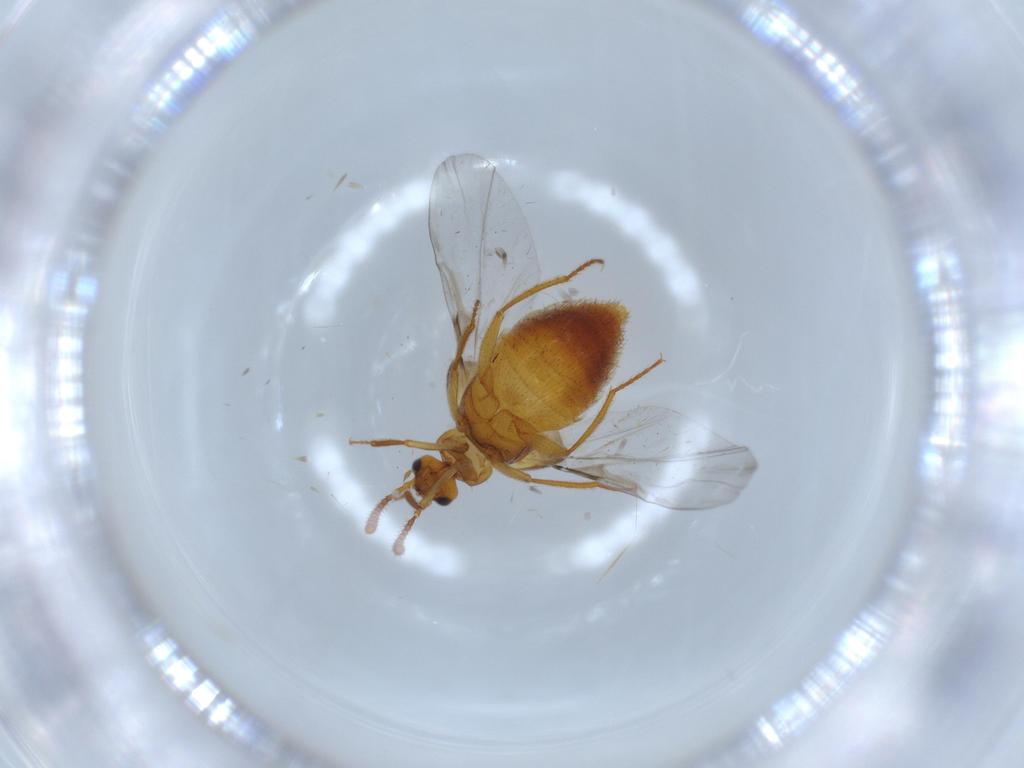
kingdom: Animalia
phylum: Arthropoda
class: Insecta
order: Coleoptera
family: Staphylinidae
